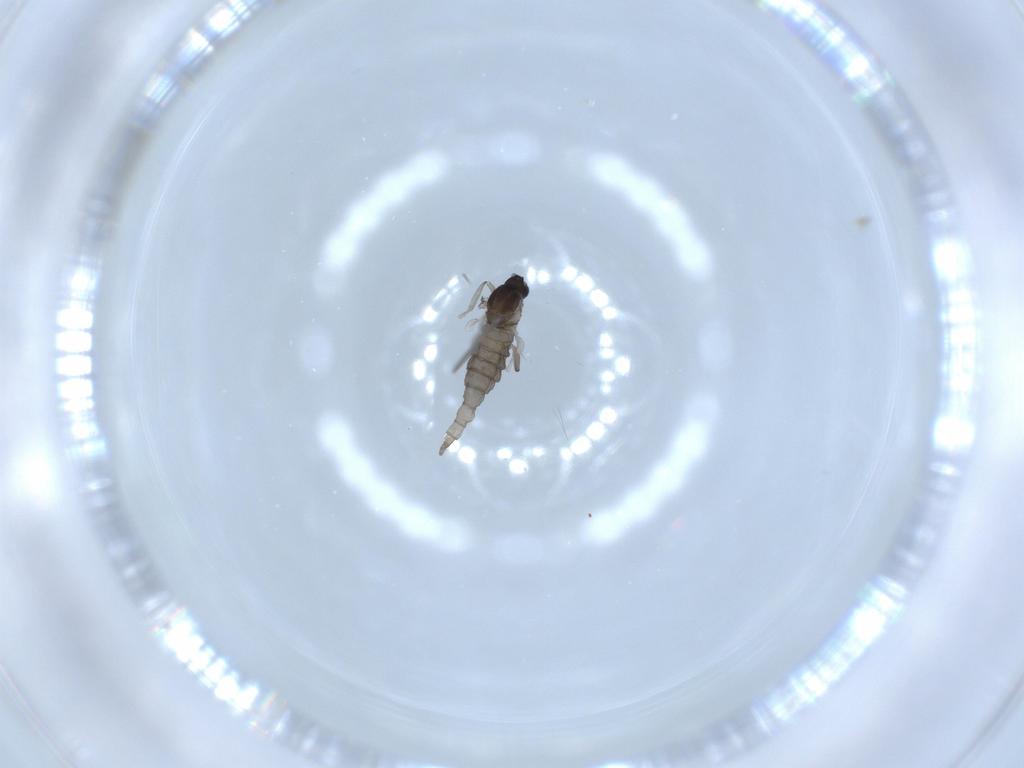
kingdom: Animalia
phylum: Arthropoda
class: Insecta
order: Diptera
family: Cecidomyiidae
